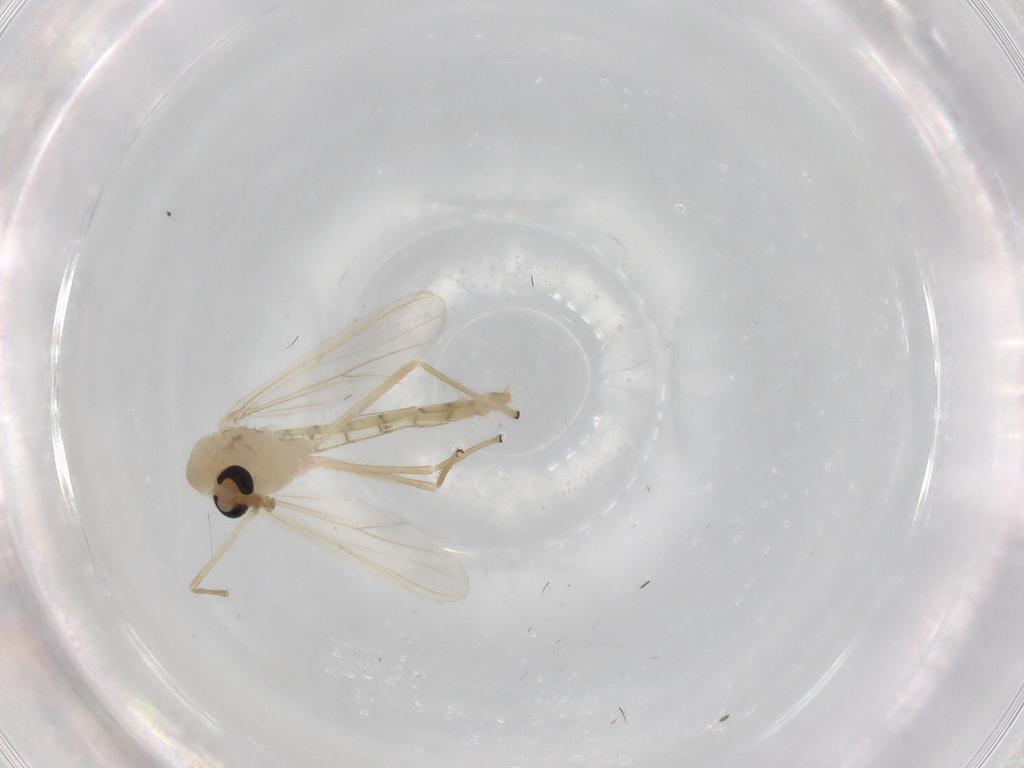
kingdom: Animalia
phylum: Arthropoda
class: Insecta
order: Diptera
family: Chironomidae
